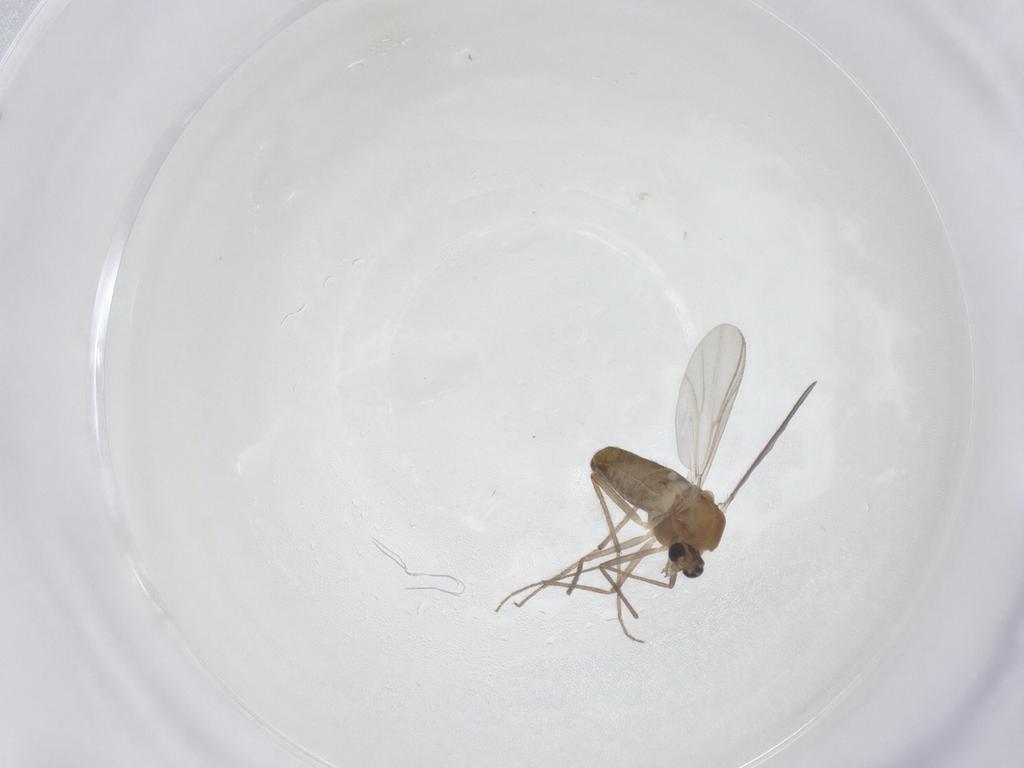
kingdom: Animalia
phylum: Arthropoda
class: Insecta
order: Diptera
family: Chironomidae
